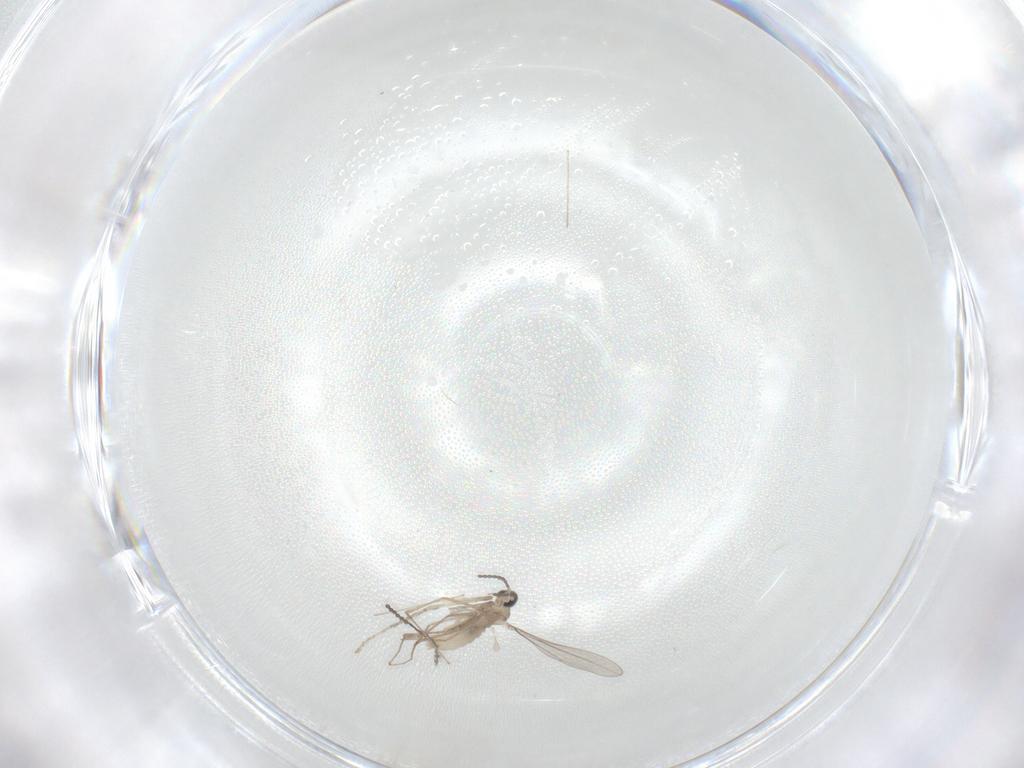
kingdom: Animalia
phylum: Arthropoda
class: Insecta
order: Diptera
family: Cecidomyiidae
